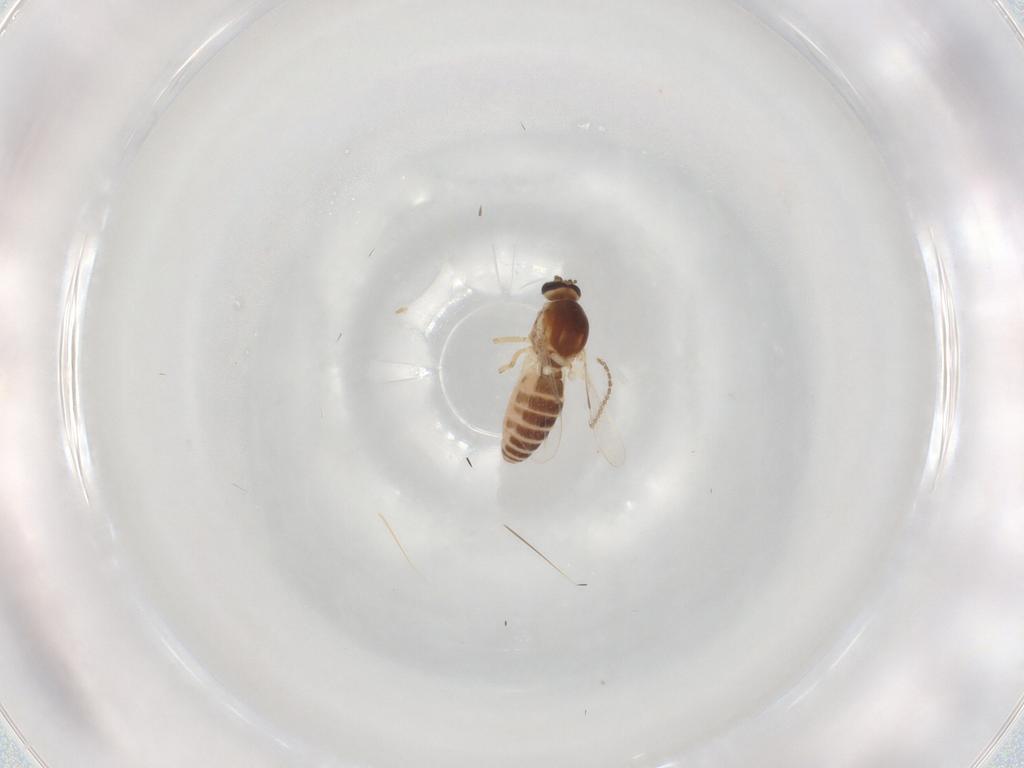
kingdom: Animalia
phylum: Arthropoda
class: Insecta
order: Diptera
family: Ceratopogonidae
